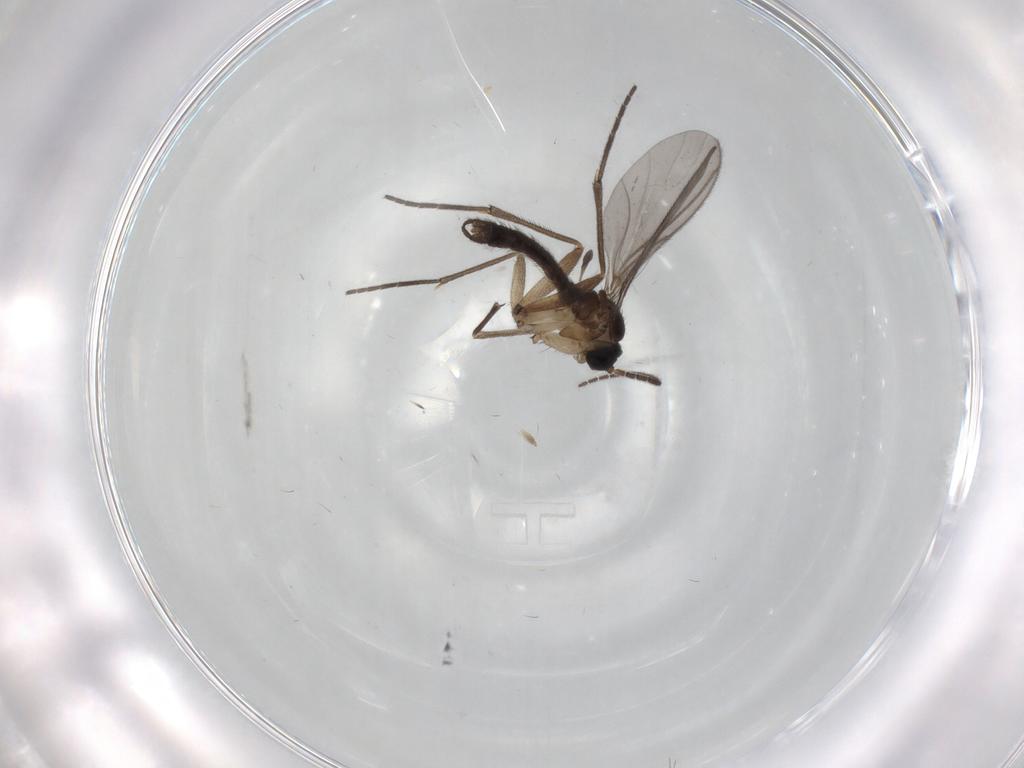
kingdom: Animalia
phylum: Arthropoda
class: Insecta
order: Diptera
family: Sciaridae
